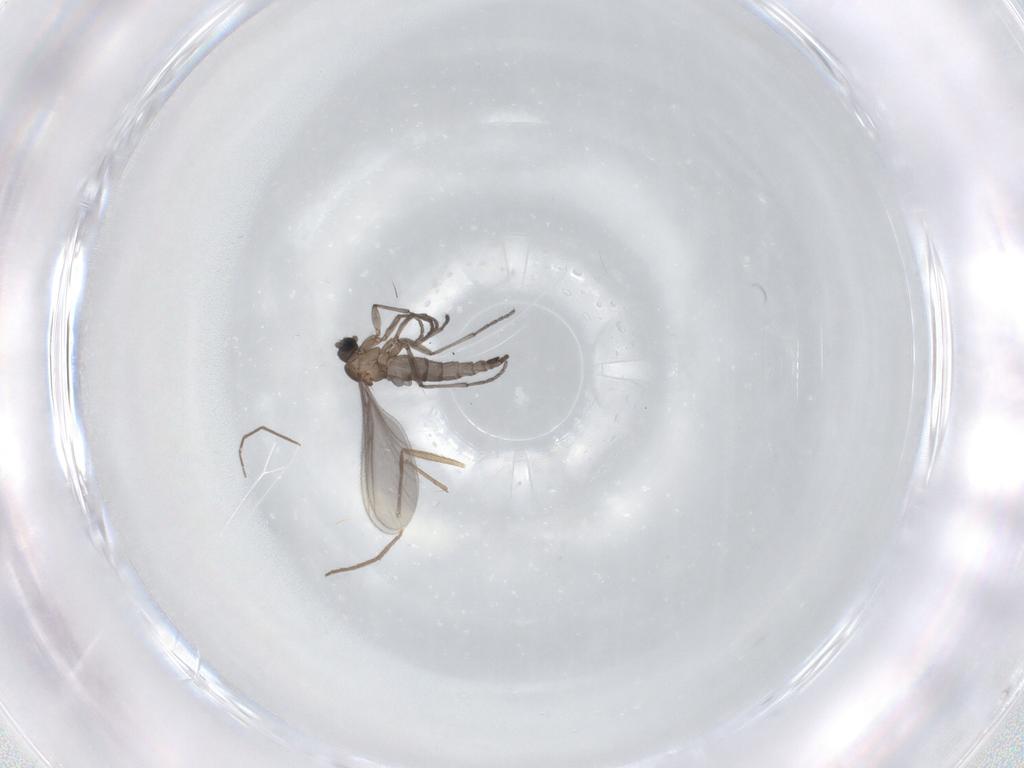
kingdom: Animalia
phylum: Arthropoda
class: Insecta
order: Diptera
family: Sciaridae
